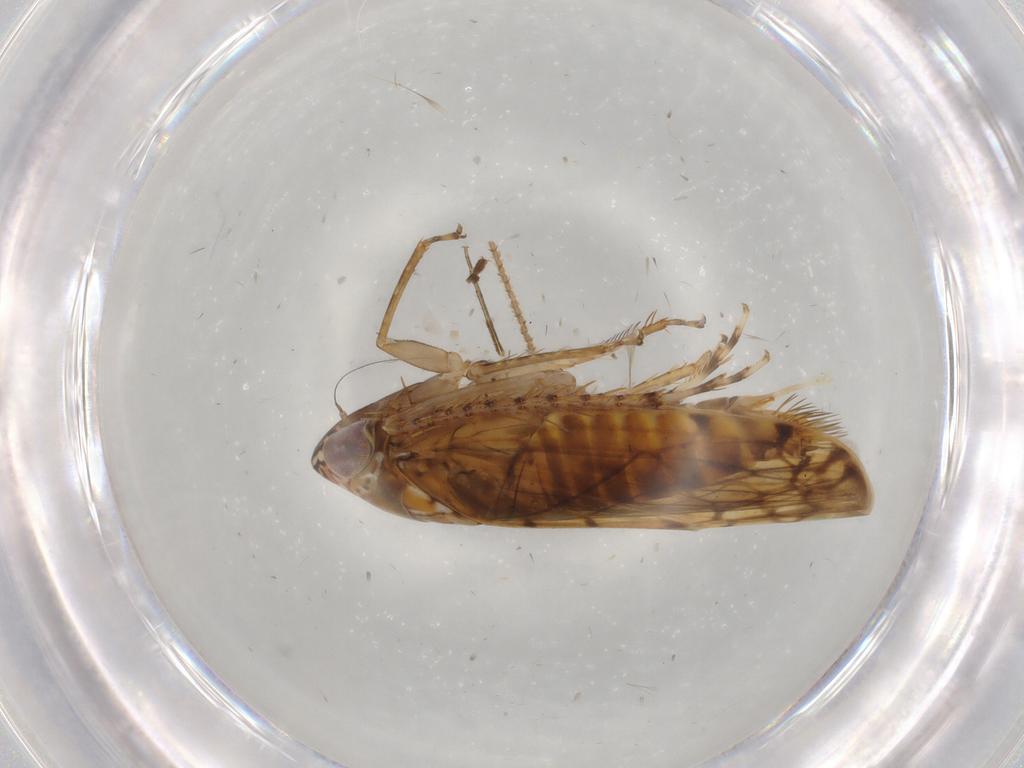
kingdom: Animalia
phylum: Arthropoda
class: Insecta
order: Hemiptera
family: Cicadellidae
